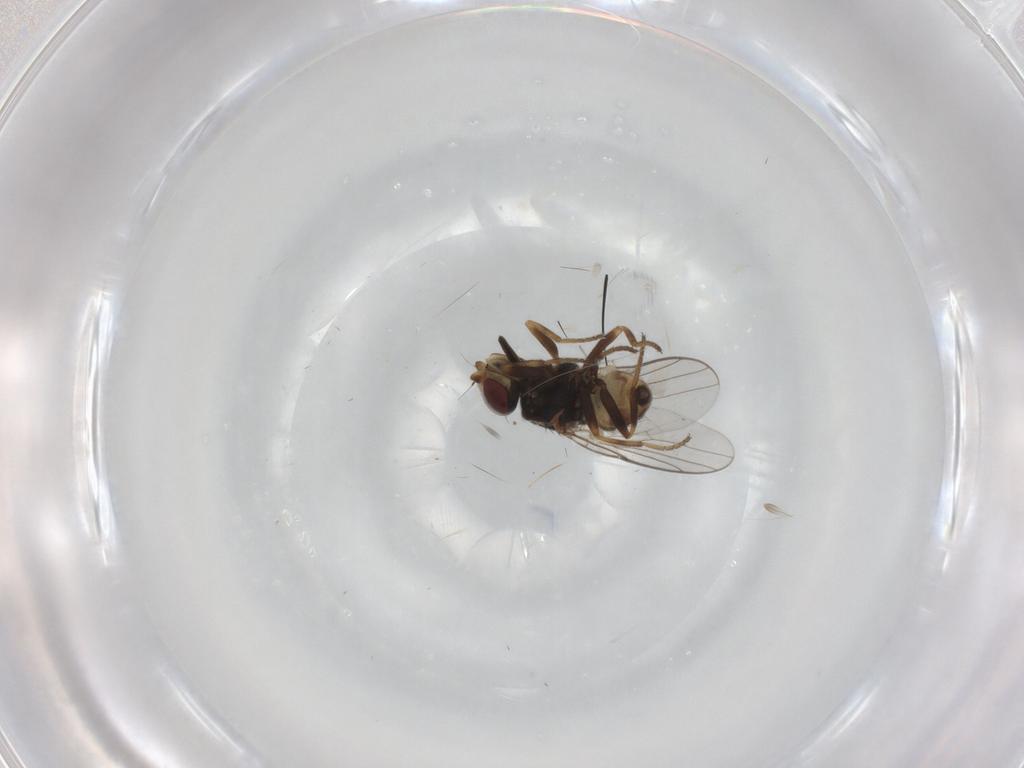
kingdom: Animalia
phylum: Arthropoda
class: Insecta
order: Diptera
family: Chloropidae
